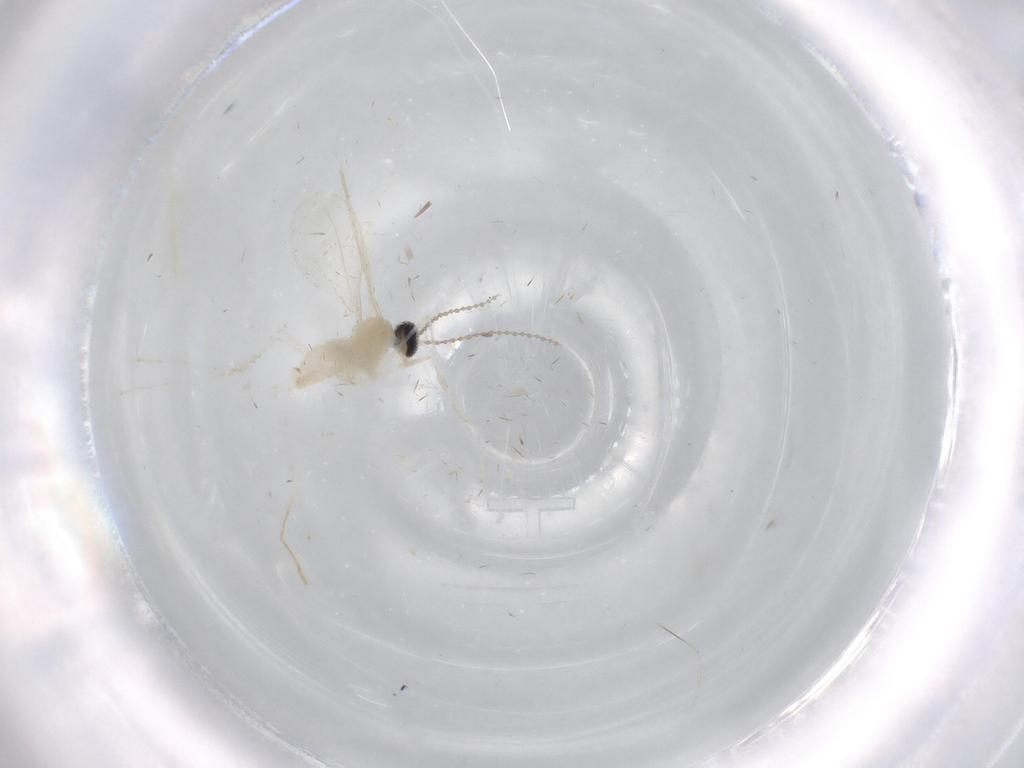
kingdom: Animalia
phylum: Arthropoda
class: Insecta
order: Diptera
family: Cecidomyiidae
